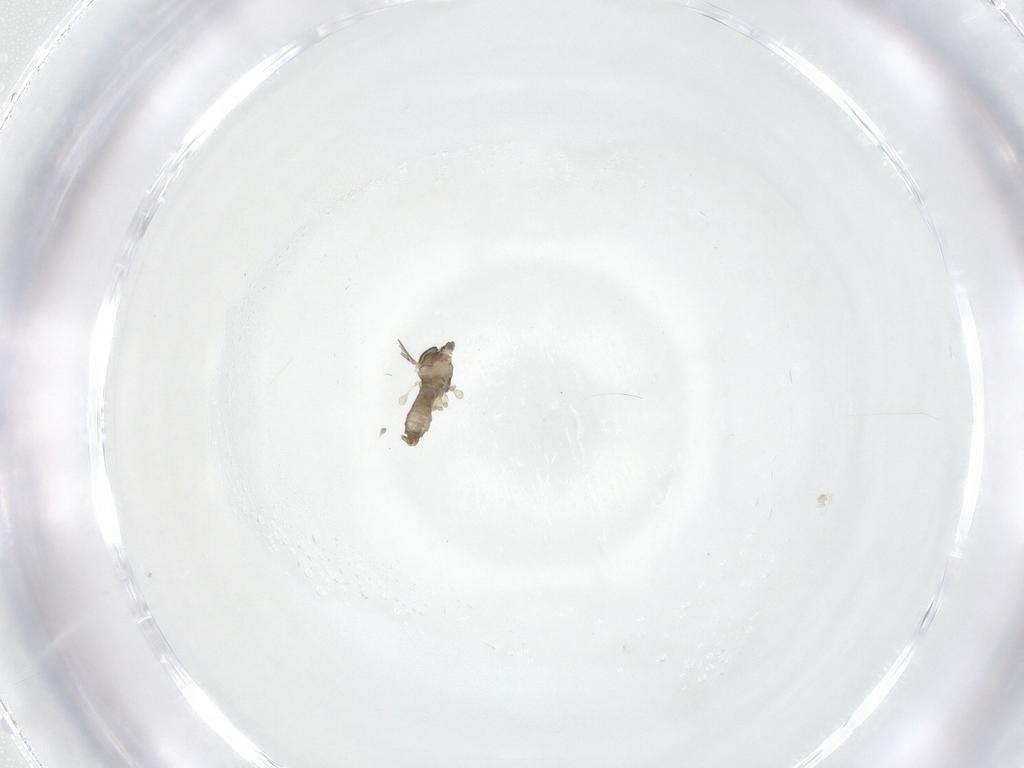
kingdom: Animalia
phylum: Arthropoda
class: Insecta
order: Diptera
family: Cecidomyiidae
